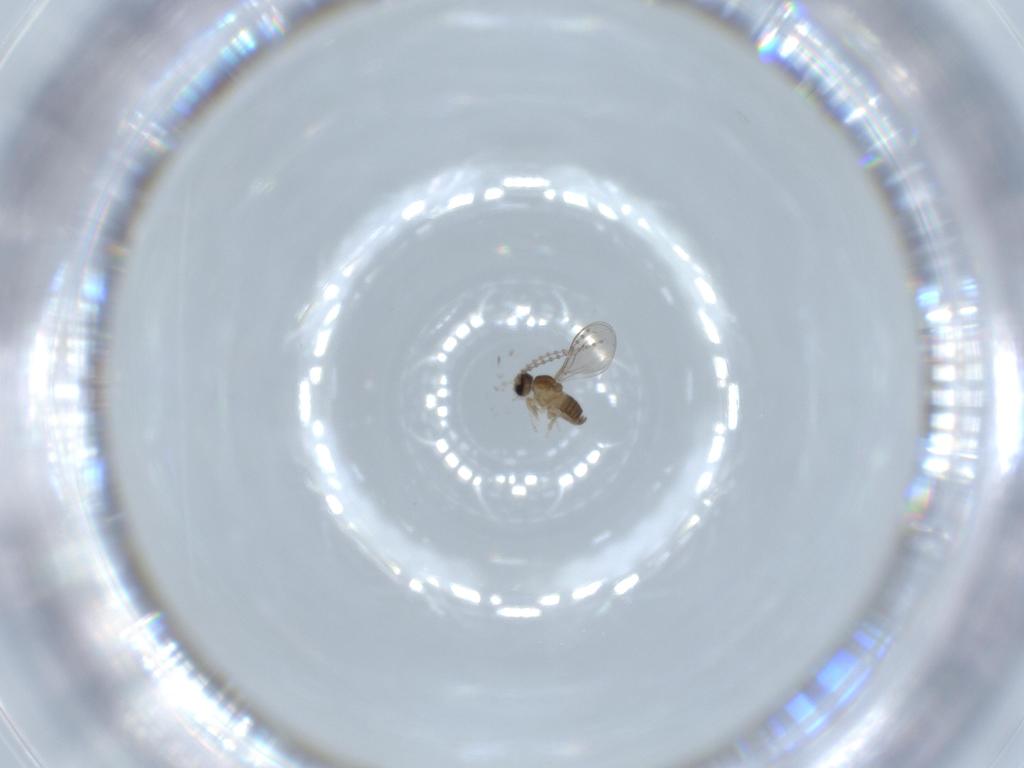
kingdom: Animalia
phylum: Arthropoda
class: Insecta
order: Diptera
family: Cecidomyiidae
